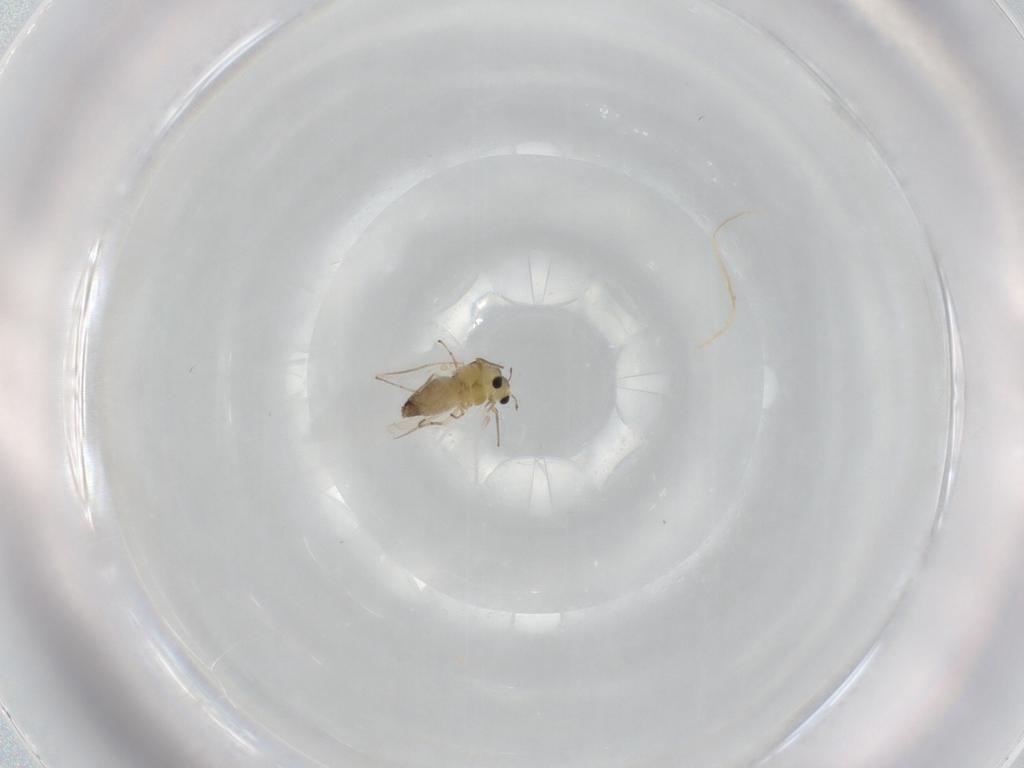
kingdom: Animalia
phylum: Arthropoda
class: Insecta
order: Diptera
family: Chironomidae
